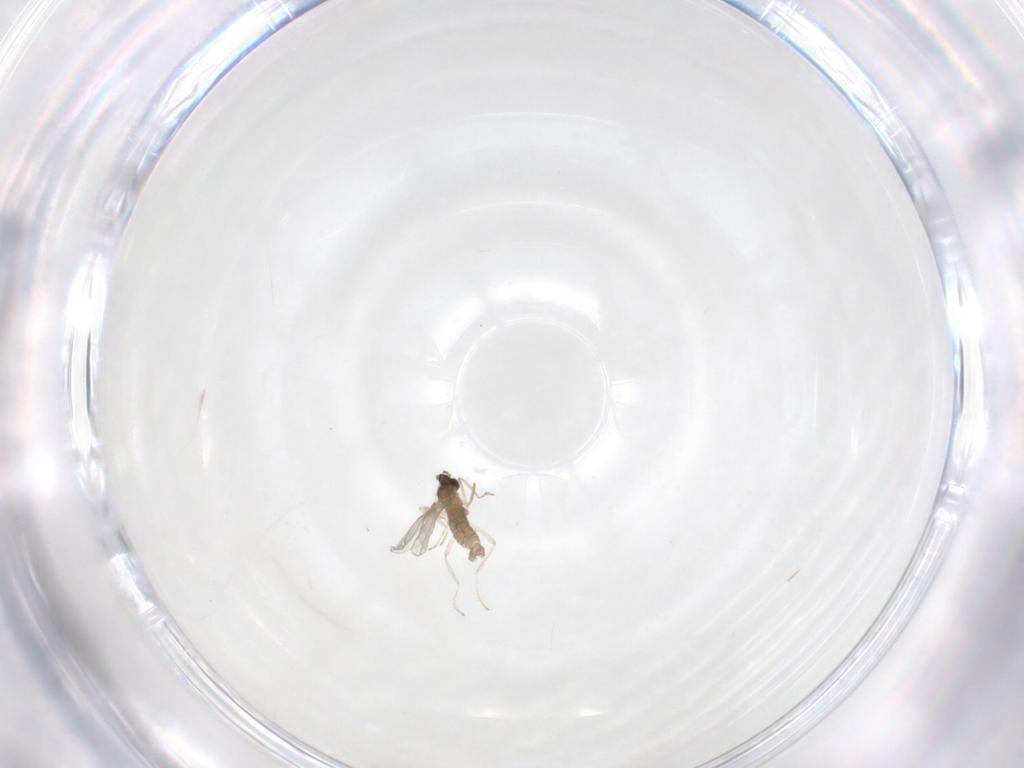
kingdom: Animalia
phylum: Arthropoda
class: Insecta
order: Diptera
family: Cecidomyiidae
